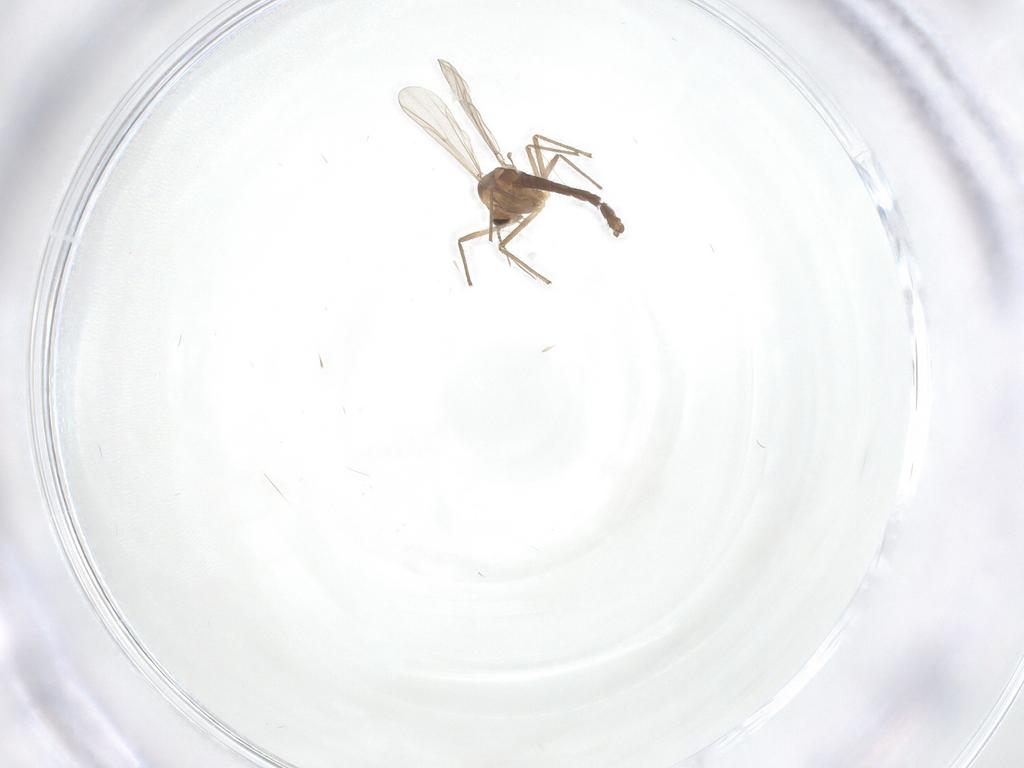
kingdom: Animalia
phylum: Arthropoda
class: Insecta
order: Diptera
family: Chironomidae
